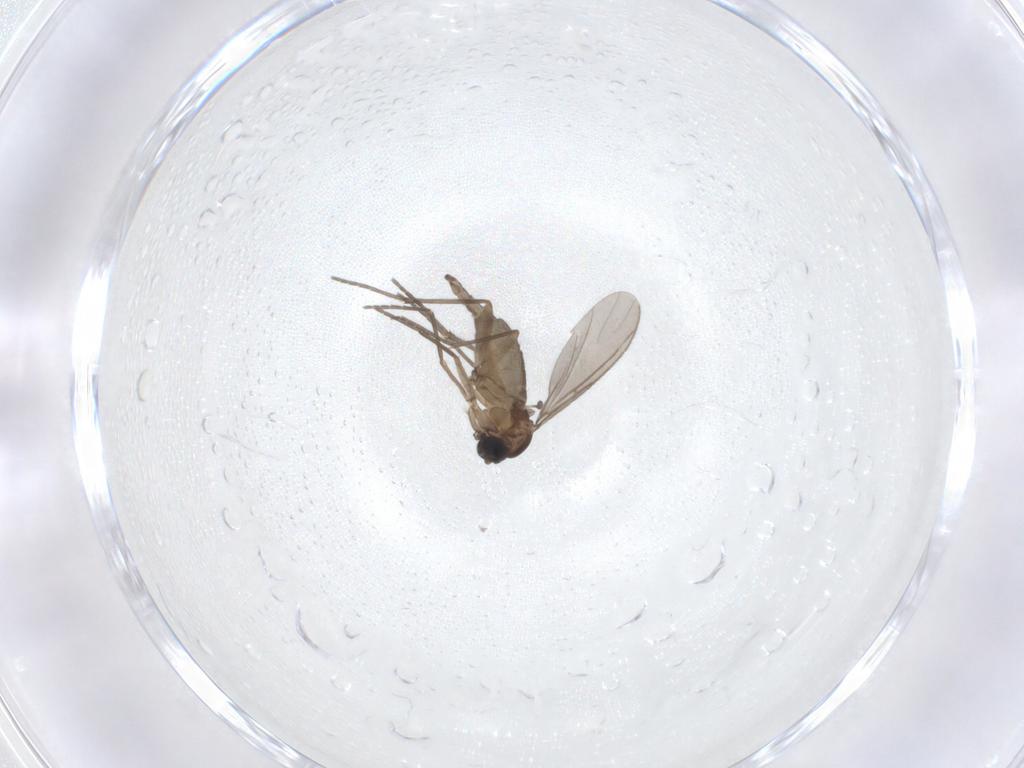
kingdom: Animalia
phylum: Arthropoda
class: Insecta
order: Diptera
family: Sciaridae
